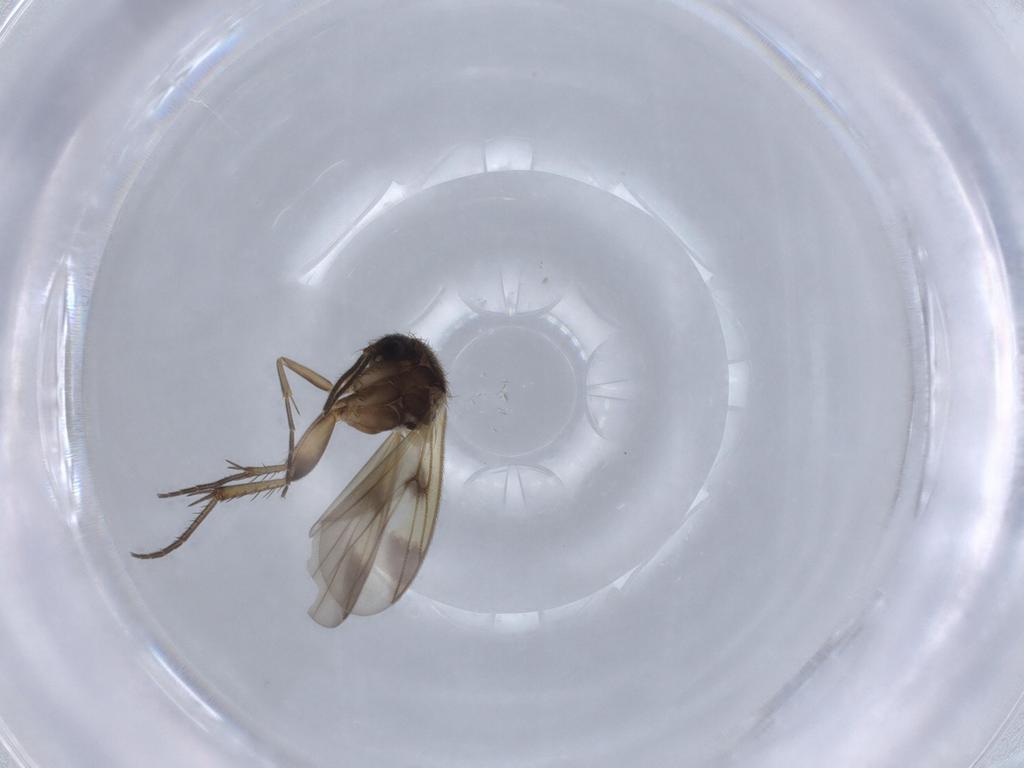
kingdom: Animalia
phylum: Arthropoda
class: Insecta
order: Diptera
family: Mycetophilidae
